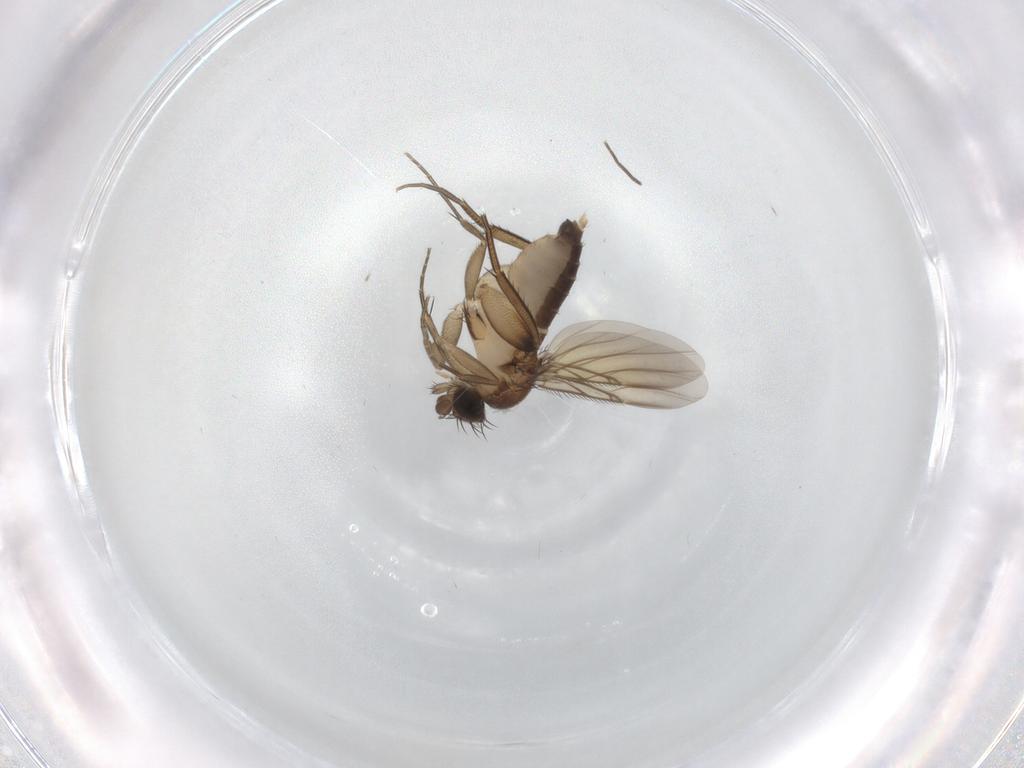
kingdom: Animalia
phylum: Arthropoda
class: Insecta
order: Diptera
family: Phoridae
